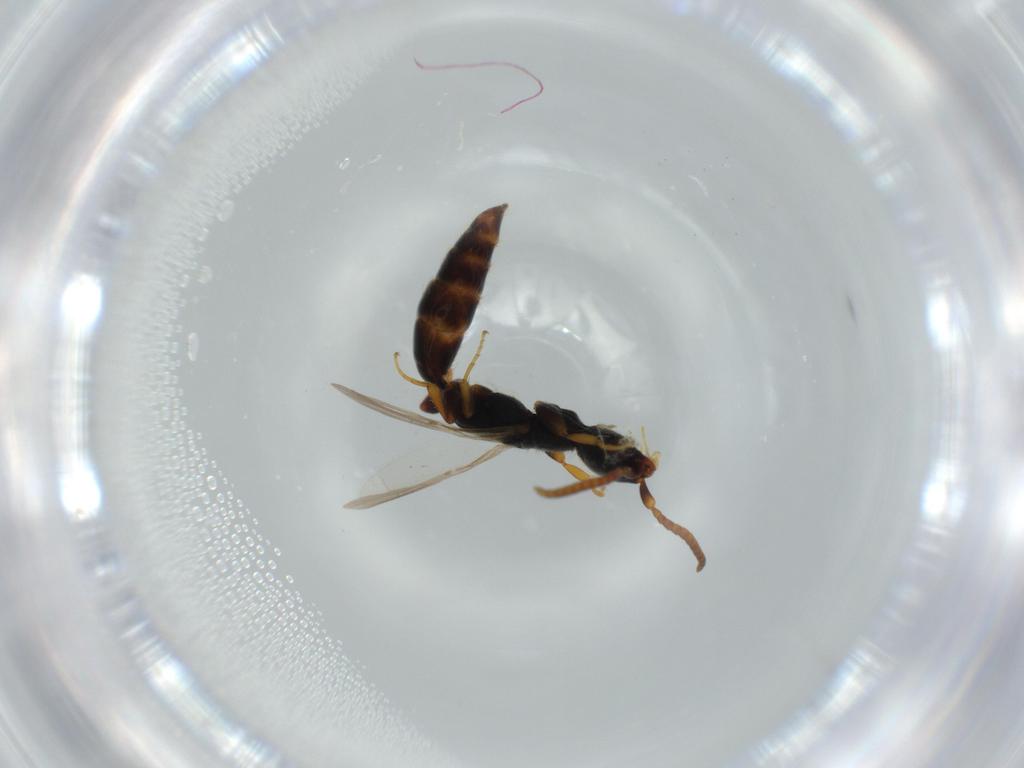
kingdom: Animalia
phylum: Arthropoda
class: Insecta
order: Hymenoptera
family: Bethylidae
